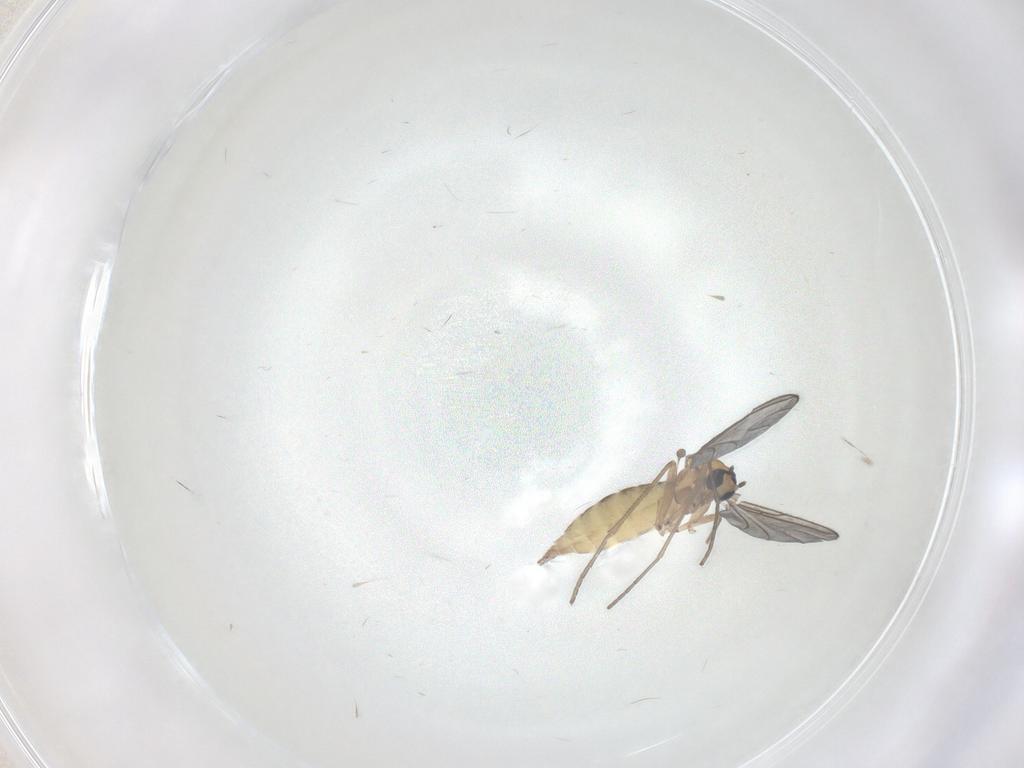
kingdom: Animalia
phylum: Arthropoda
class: Insecta
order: Diptera
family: Sciaridae
